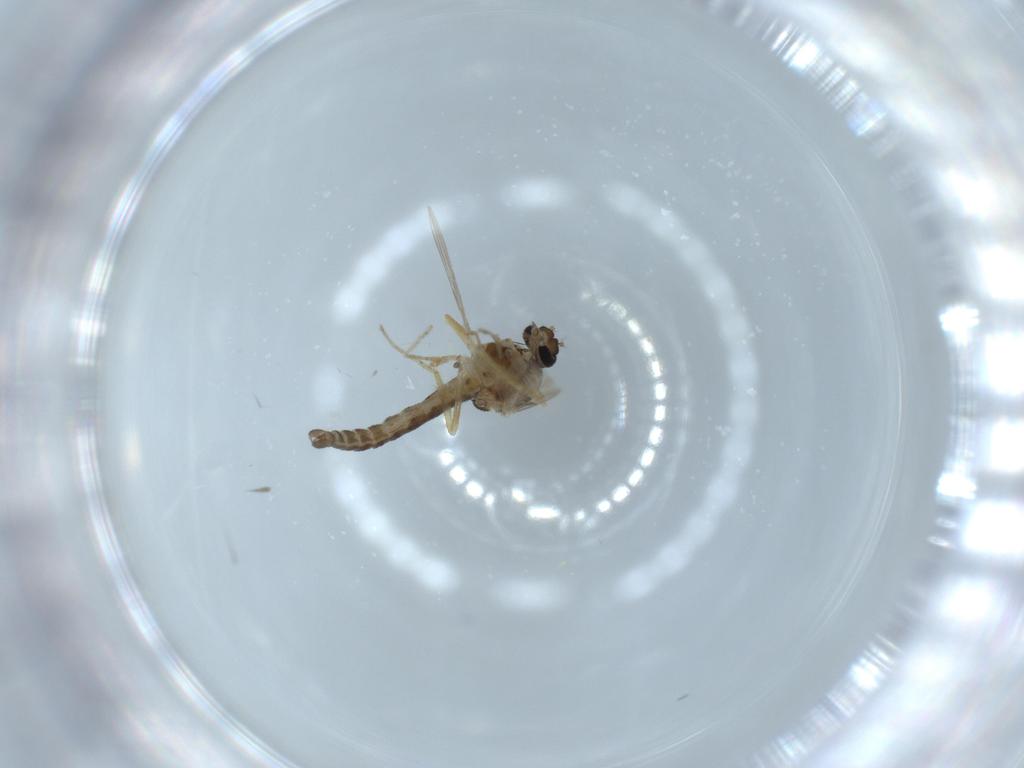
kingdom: Animalia
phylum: Arthropoda
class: Insecta
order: Diptera
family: Ceratopogonidae
